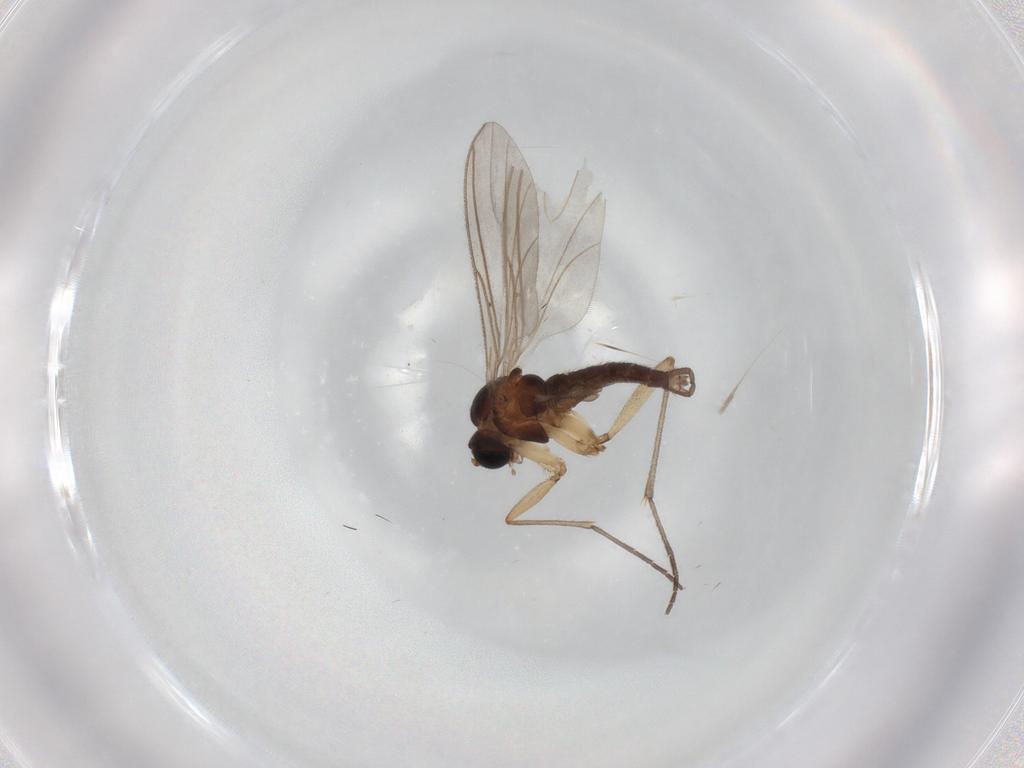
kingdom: Animalia
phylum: Arthropoda
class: Insecta
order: Diptera
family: Sciaridae
